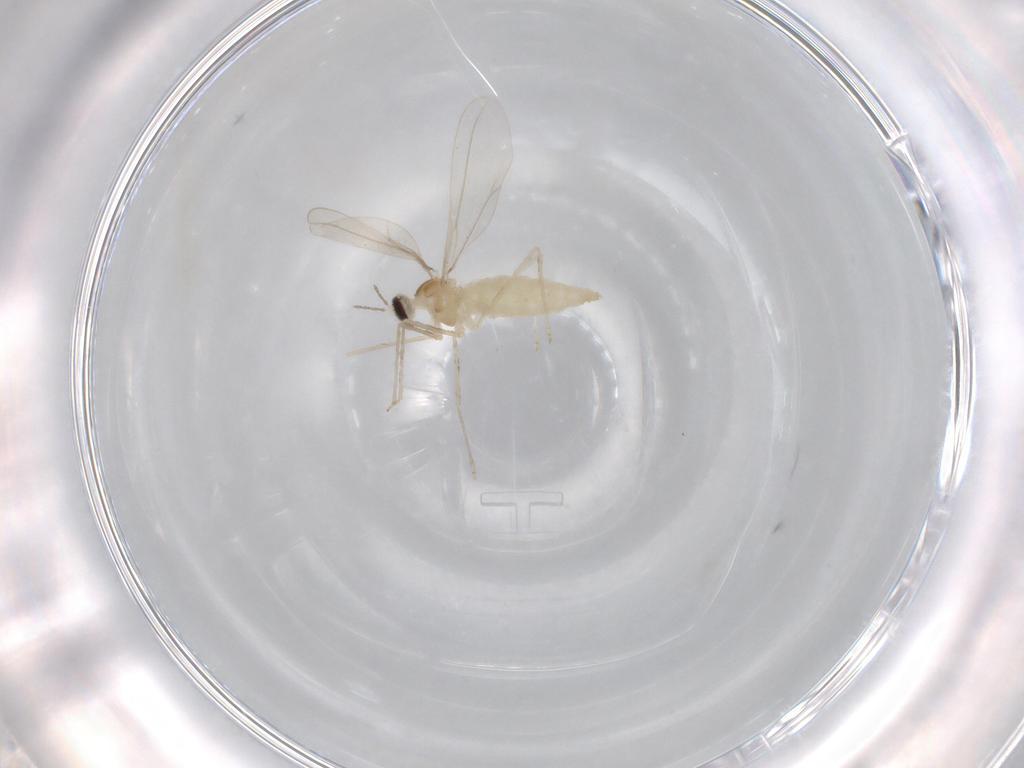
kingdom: Animalia
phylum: Arthropoda
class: Insecta
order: Diptera
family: Cecidomyiidae
